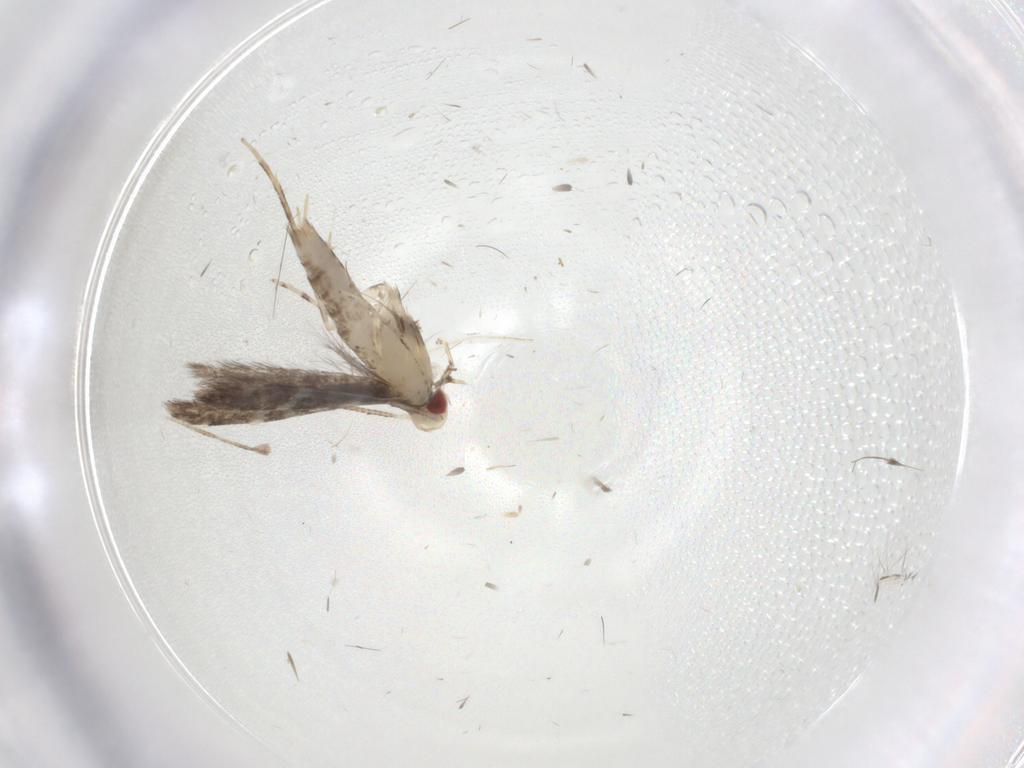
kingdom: Animalia
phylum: Arthropoda
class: Insecta
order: Lepidoptera
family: Gracillariidae
